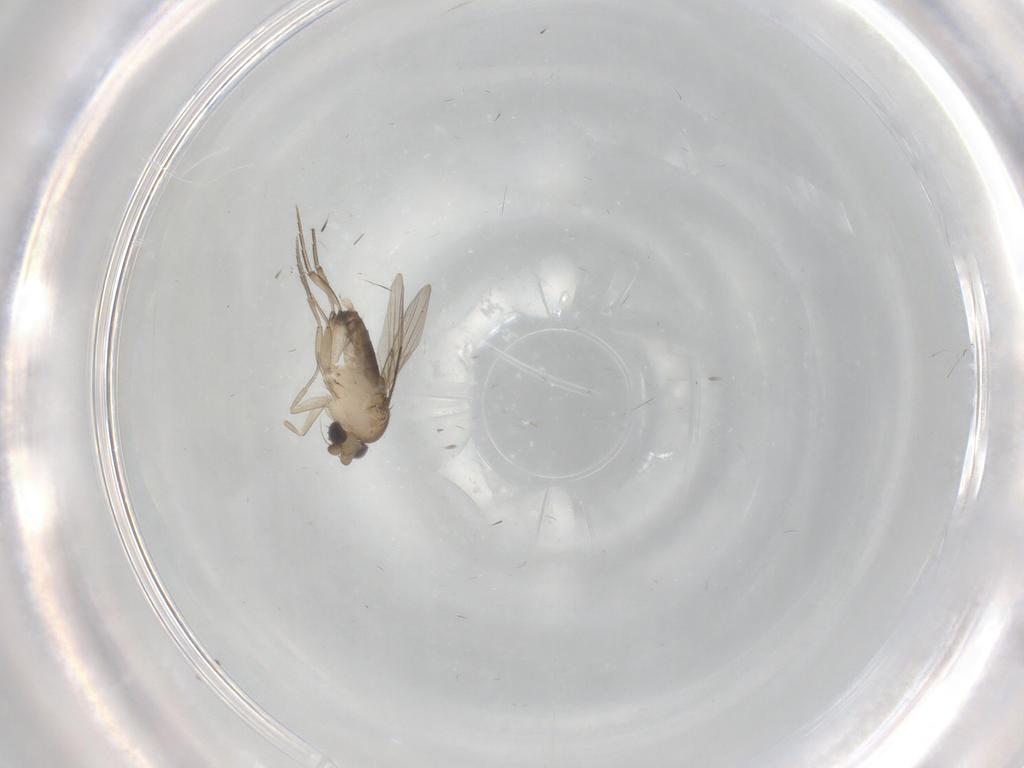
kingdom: Animalia
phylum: Arthropoda
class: Insecta
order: Diptera
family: Phoridae
